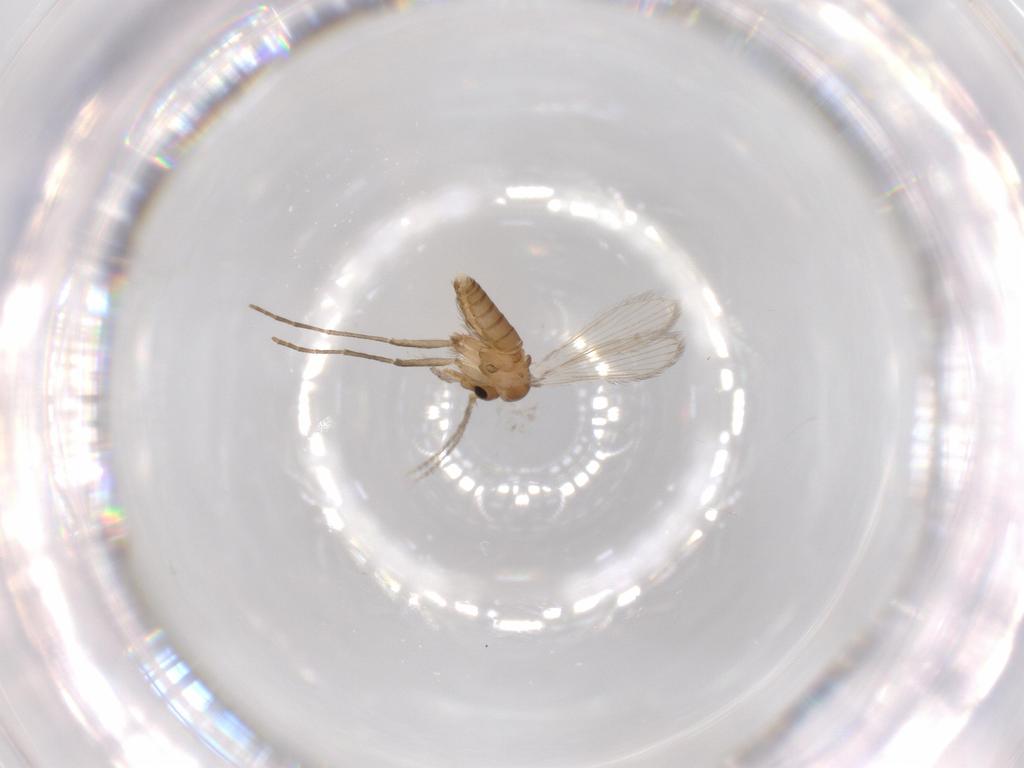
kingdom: Animalia
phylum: Arthropoda
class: Insecta
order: Diptera
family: Psychodidae
